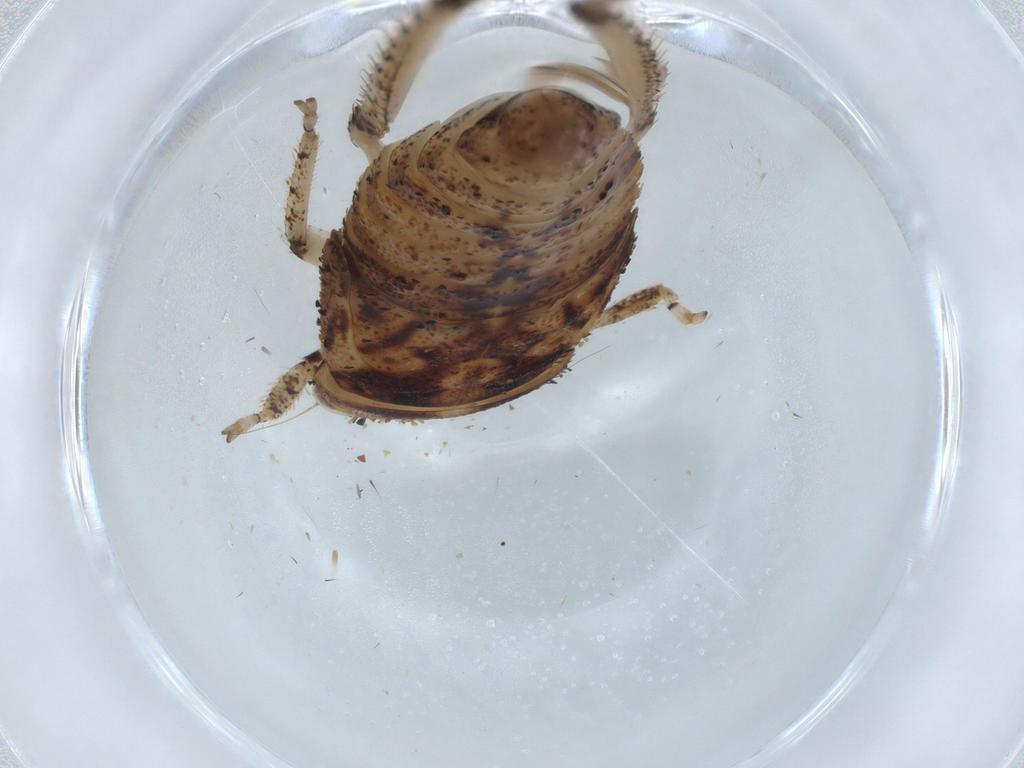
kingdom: Animalia
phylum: Arthropoda
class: Insecta
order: Hemiptera
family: Cicadellidae
